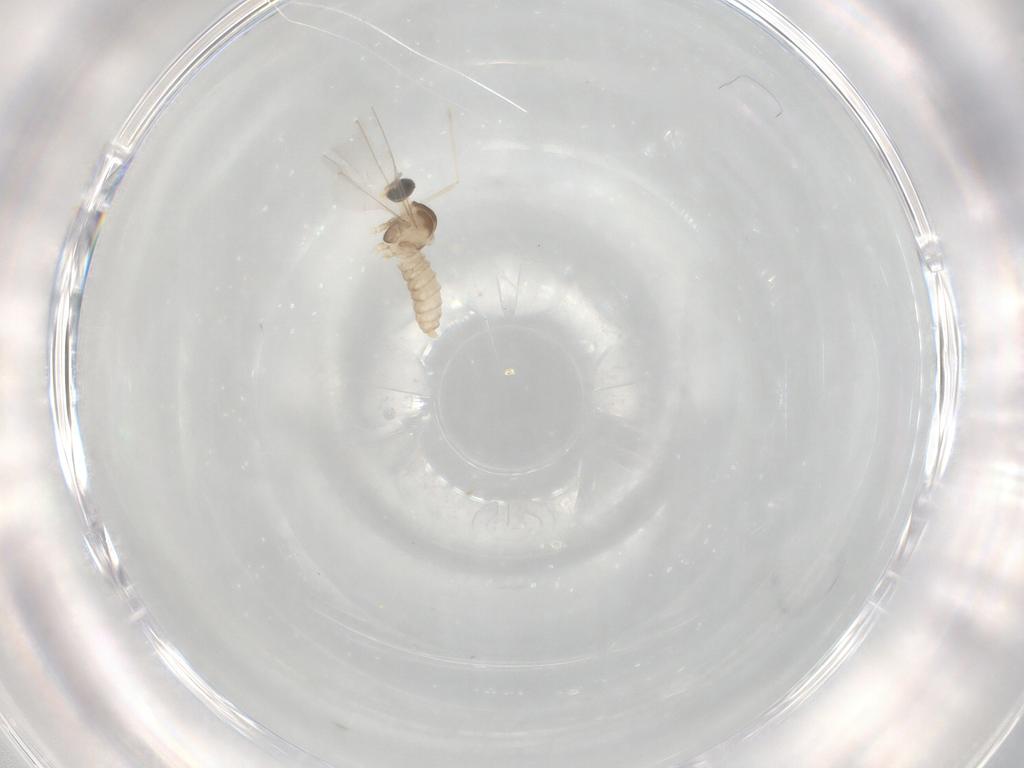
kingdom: Animalia
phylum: Arthropoda
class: Insecta
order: Diptera
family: Cecidomyiidae
